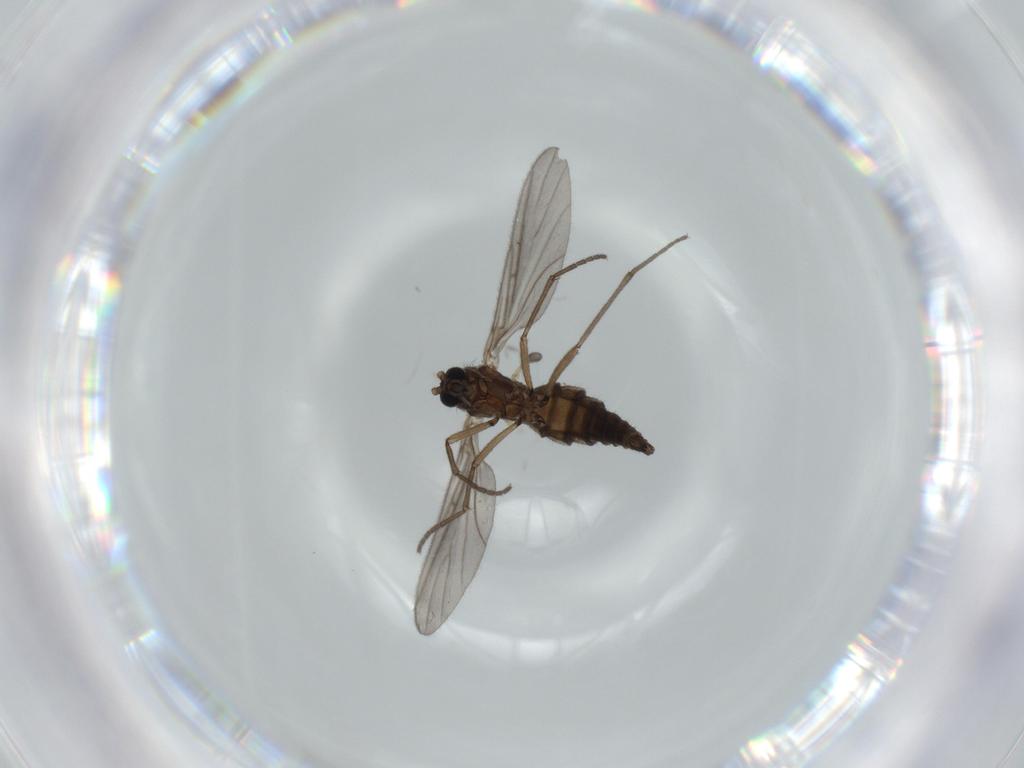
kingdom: Animalia
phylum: Arthropoda
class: Insecta
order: Diptera
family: Sciaridae
